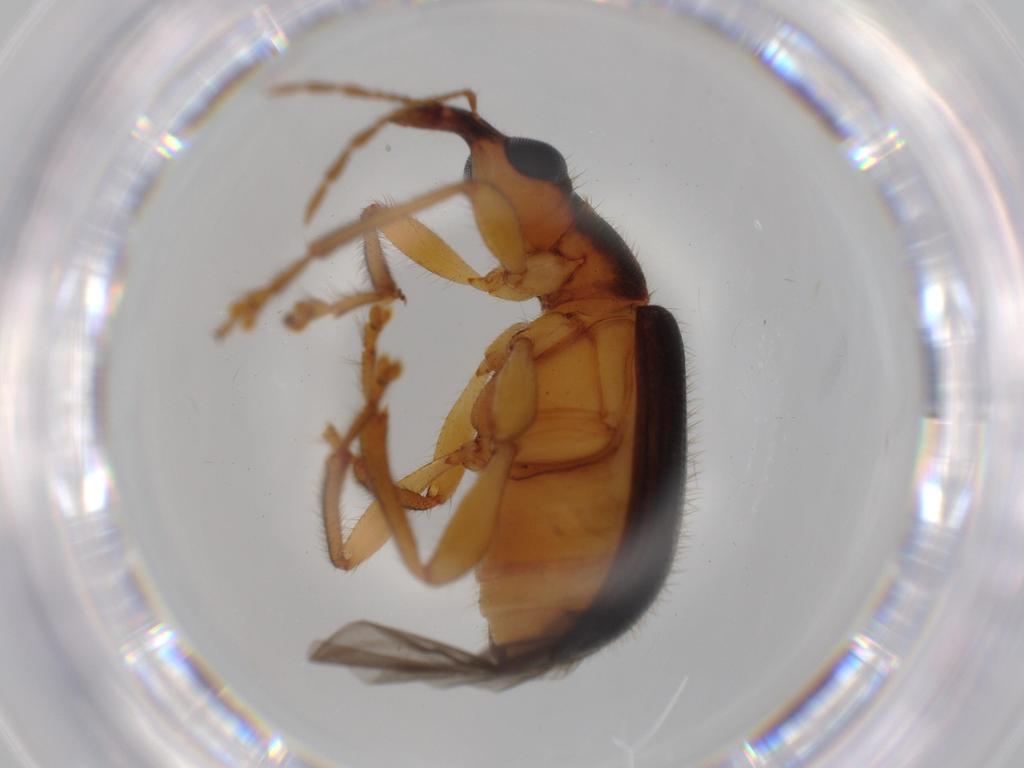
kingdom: Animalia
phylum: Arthropoda
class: Insecta
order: Coleoptera
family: Attelabidae
